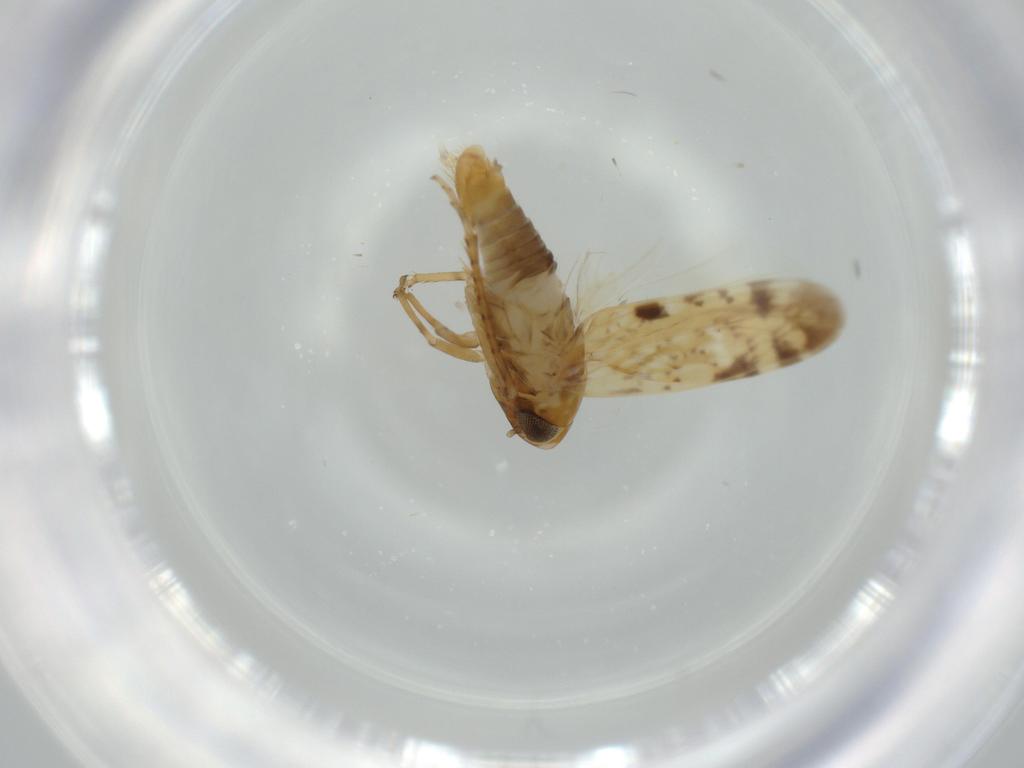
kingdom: Animalia
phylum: Arthropoda
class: Insecta
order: Hemiptera
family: Cicadellidae
